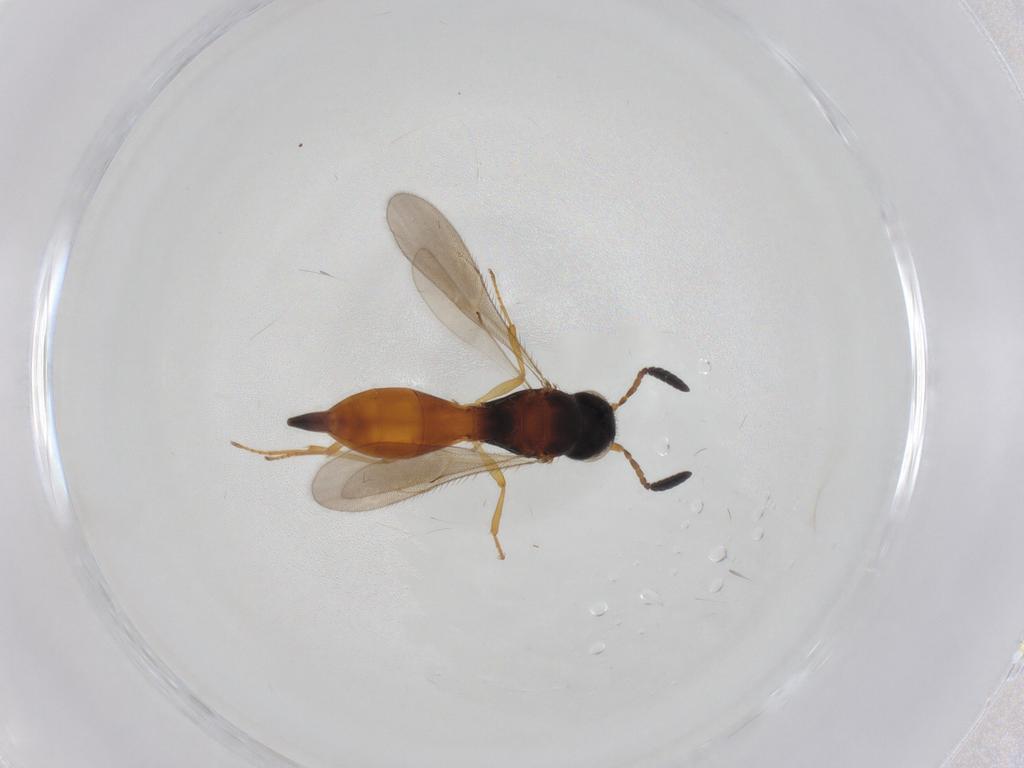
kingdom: Animalia
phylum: Arthropoda
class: Insecta
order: Hymenoptera
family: Scelionidae
